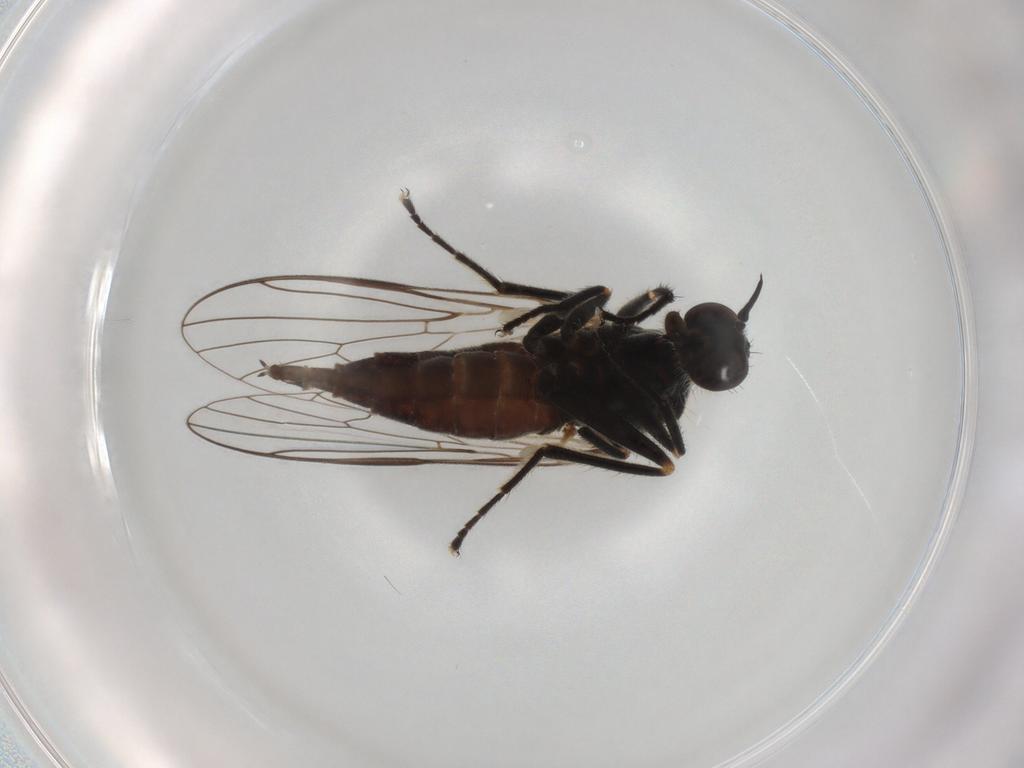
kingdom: Animalia
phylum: Arthropoda
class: Insecta
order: Diptera
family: Empididae
